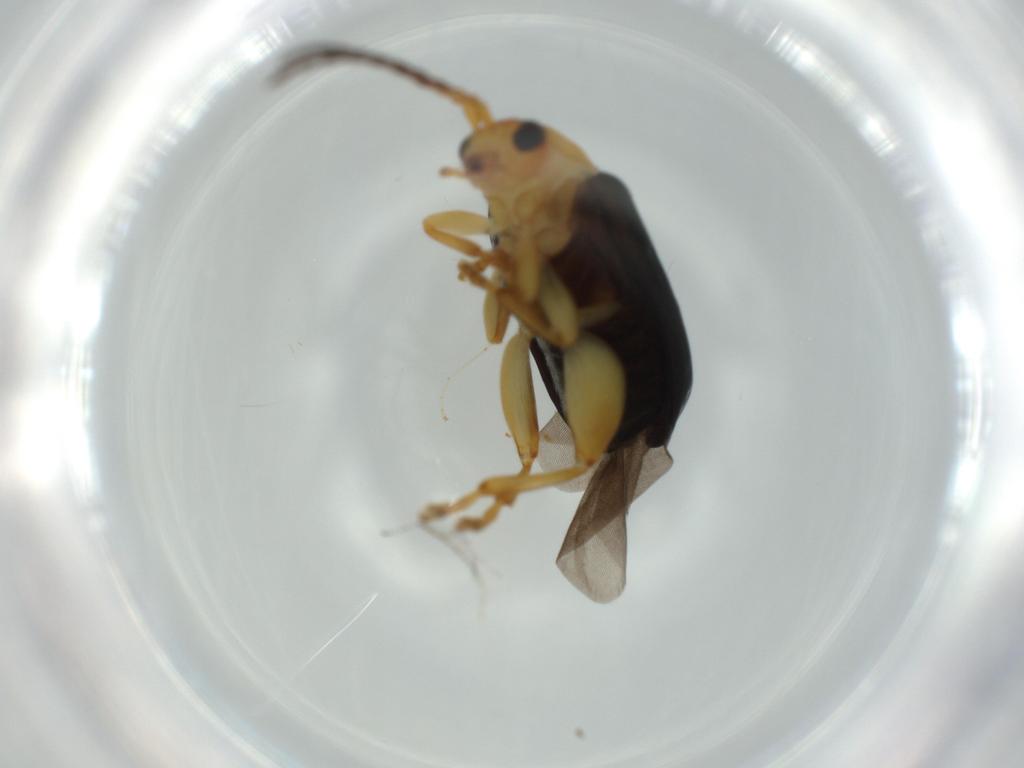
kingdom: Animalia
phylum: Arthropoda
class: Insecta
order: Coleoptera
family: Chrysomelidae
